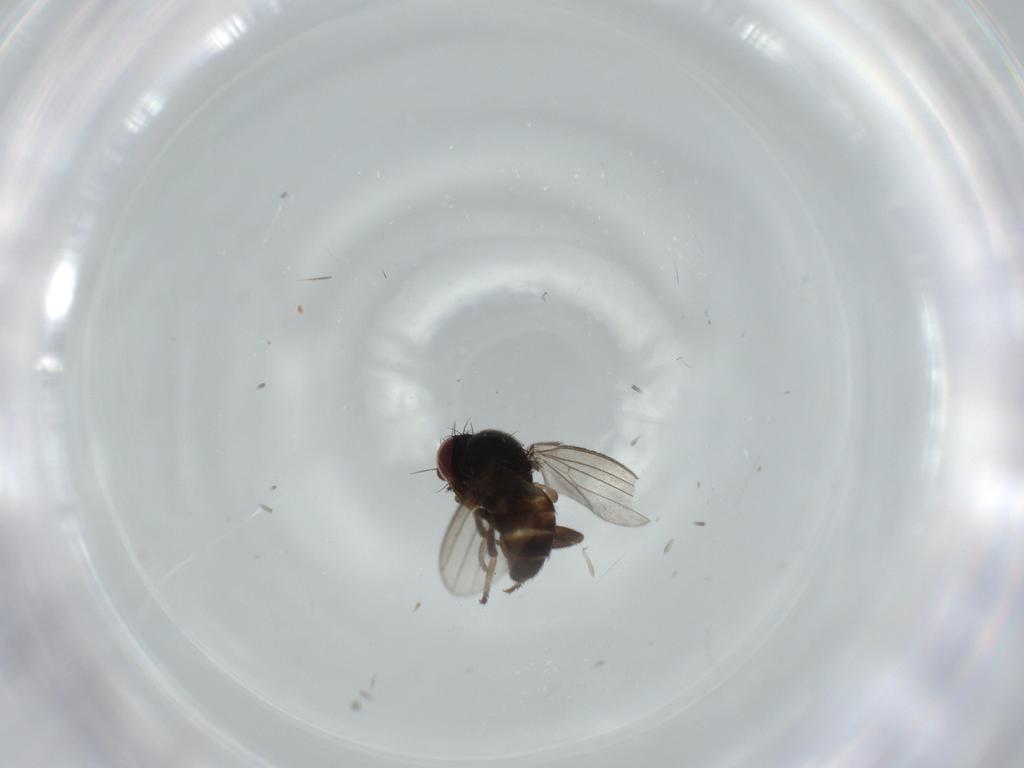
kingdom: Animalia
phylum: Arthropoda
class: Insecta
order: Diptera
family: Milichiidae
